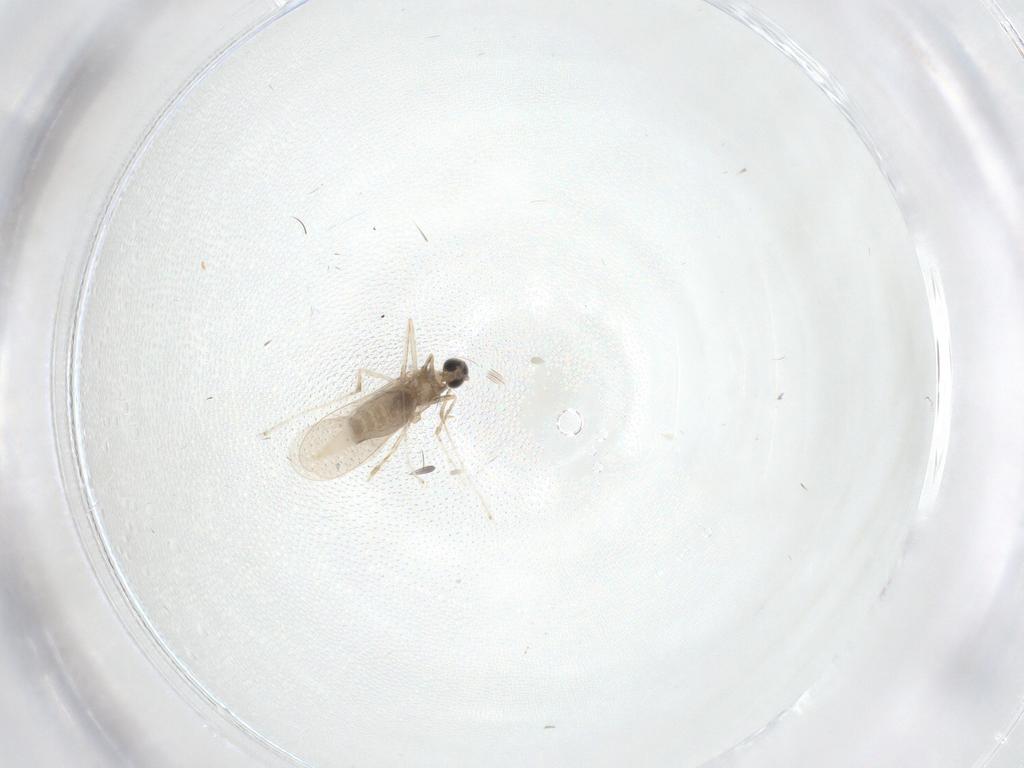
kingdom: Animalia
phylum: Arthropoda
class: Insecta
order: Diptera
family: Chironomidae
